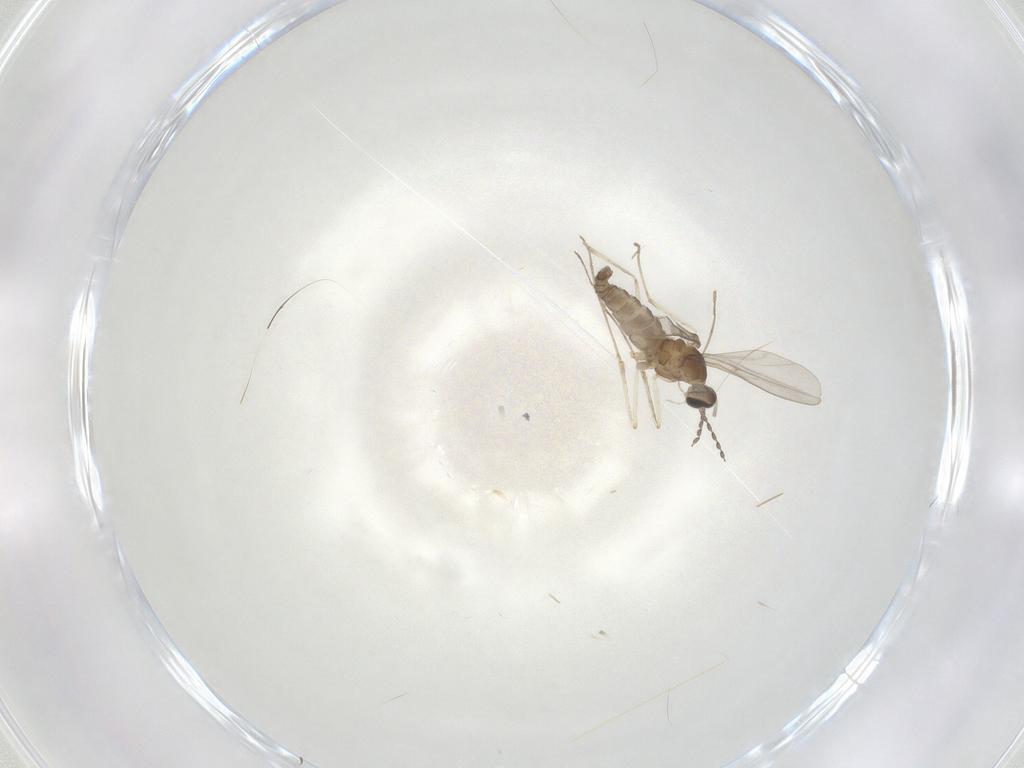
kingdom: Animalia
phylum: Arthropoda
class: Insecta
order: Diptera
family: Cecidomyiidae
